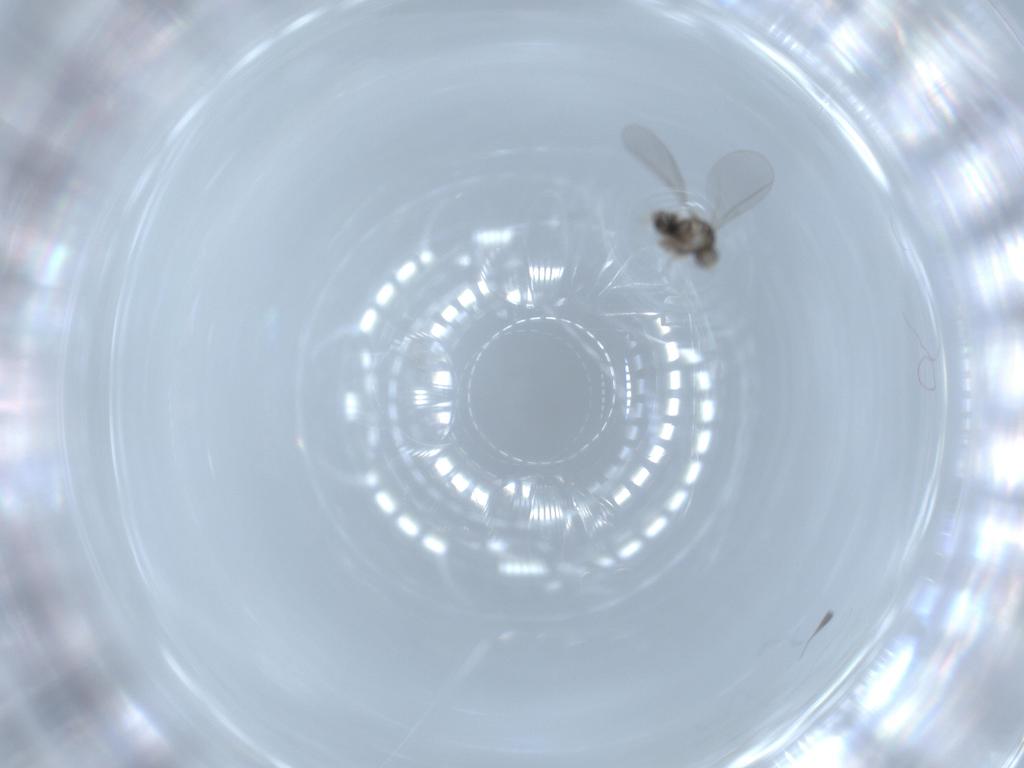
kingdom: Animalia
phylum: Arthropoda
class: Insecta
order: Diptera
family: Cecidomyiidae
